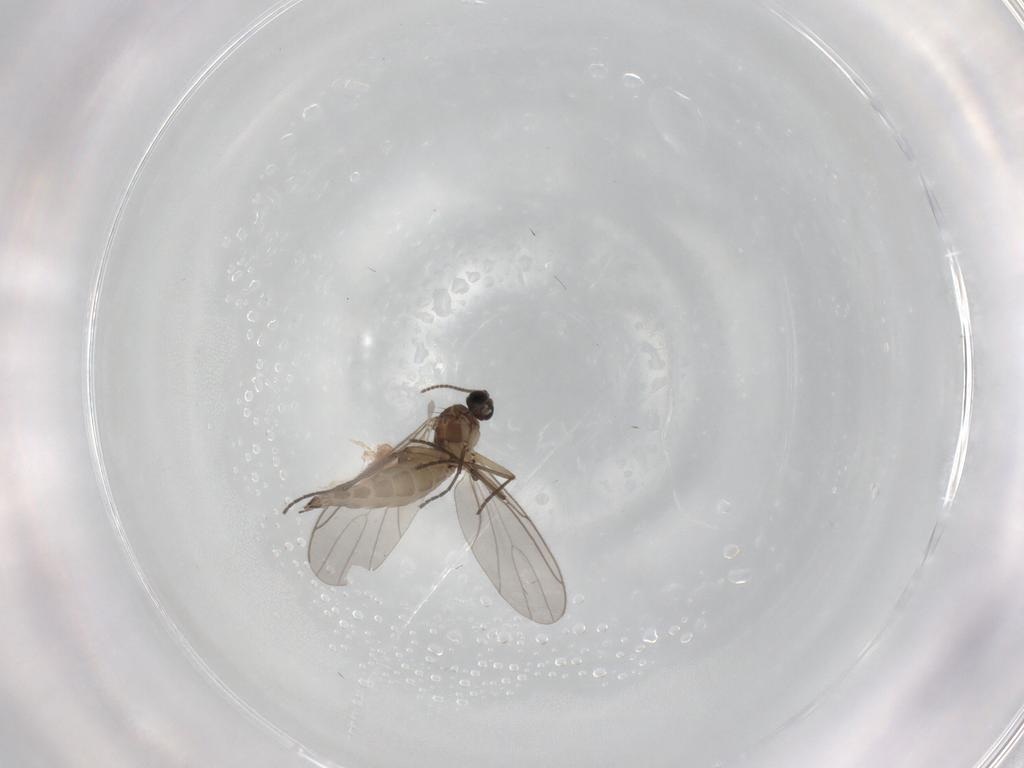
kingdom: Animalia
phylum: Arthropoda
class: Insecta
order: Diptera
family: Sciaridae
